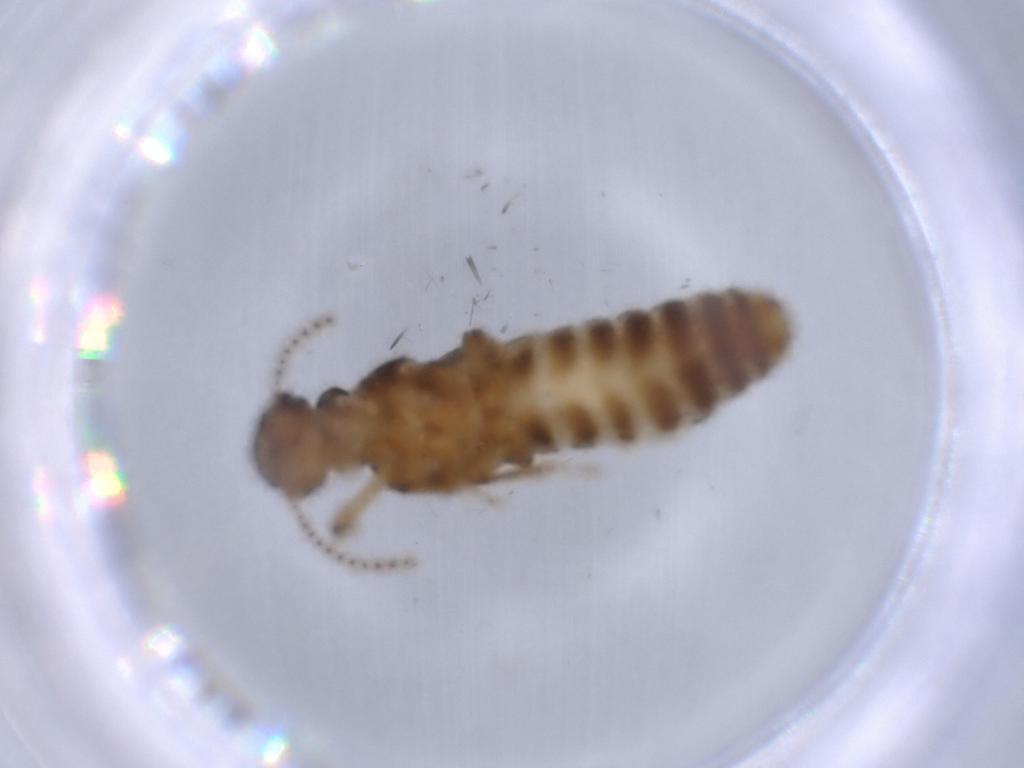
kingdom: Animalia
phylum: Arthropoda
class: Insecta
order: Blattodea
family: Termitidae
